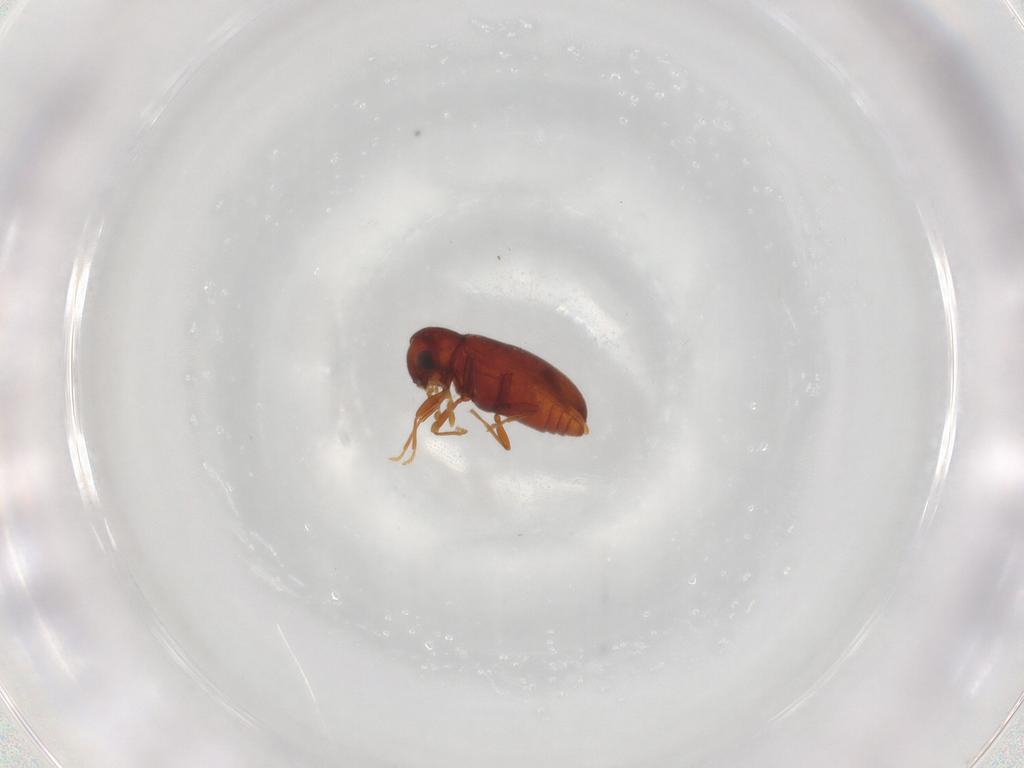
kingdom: Animalia
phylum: Arthropoda
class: Insecta
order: Coleoptera
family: Ptinidae
